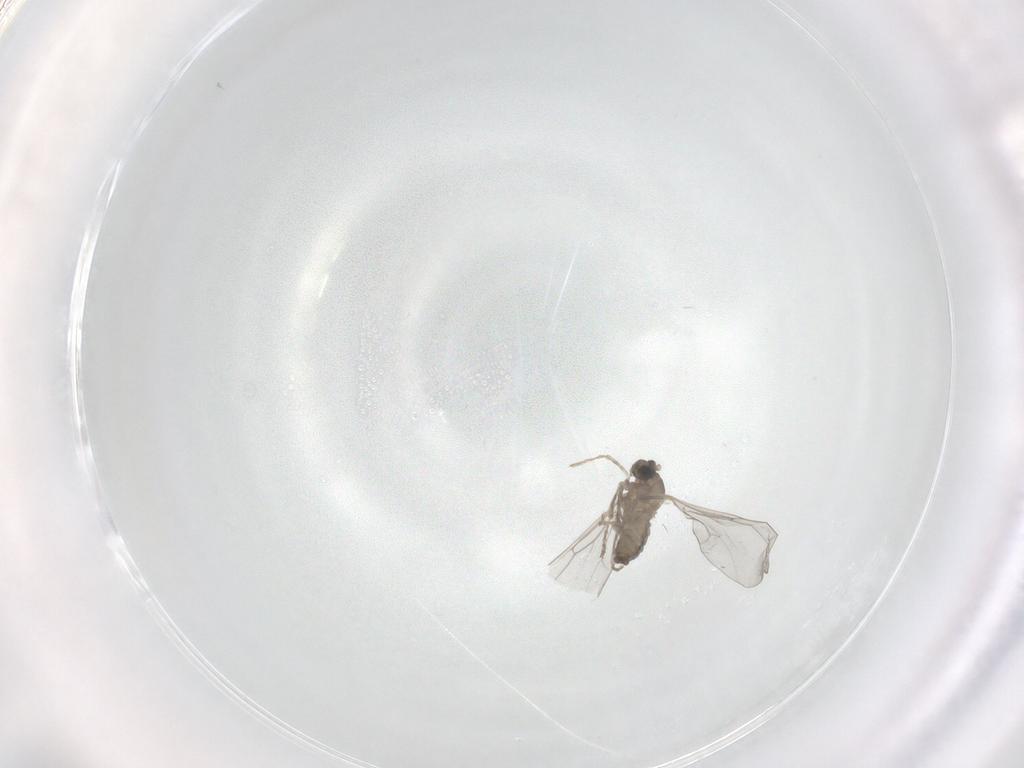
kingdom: Animalia
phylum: Arthropoda
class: Insecta
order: Diptera
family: Cecidomyiidae
